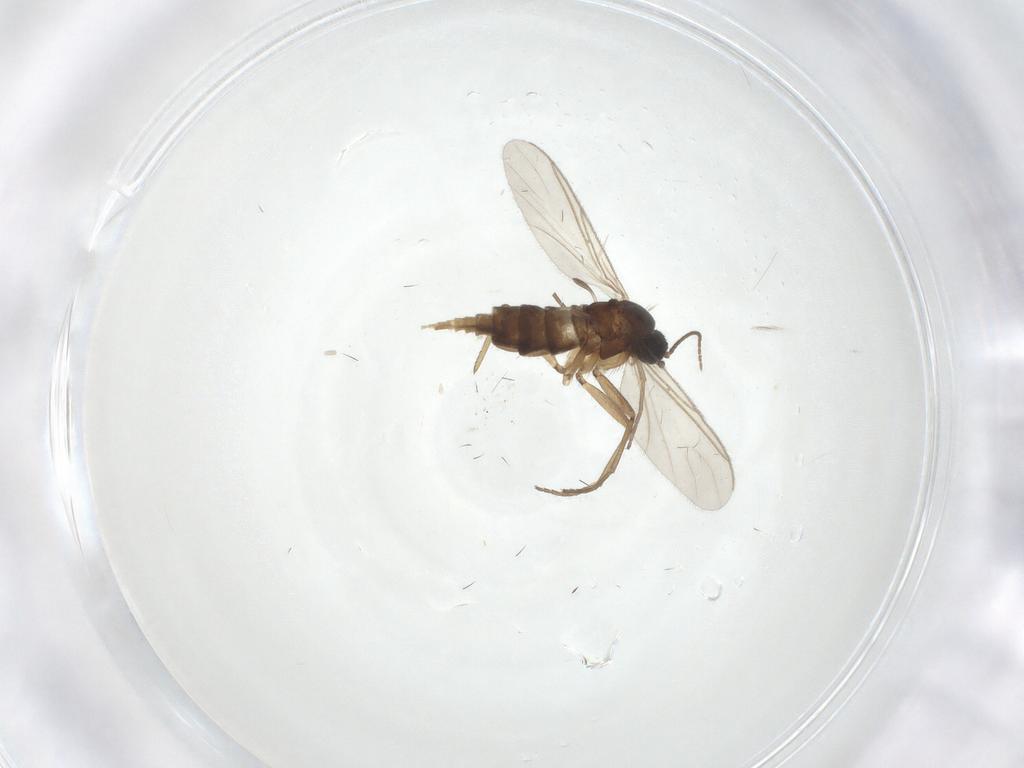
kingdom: Animalia
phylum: Arthropoda
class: Insecta
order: Diptera
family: Sciaridae
